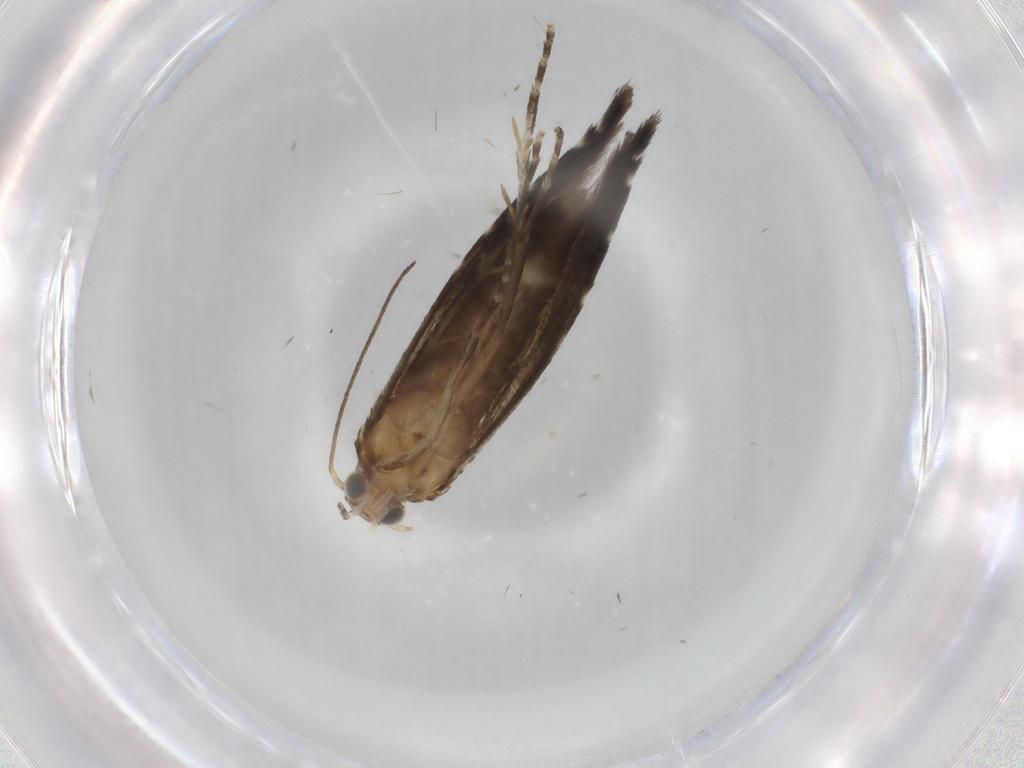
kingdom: Animalia
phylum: Arthropoda
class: Insecta
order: Lepidoptera
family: Glyphipterigidae
